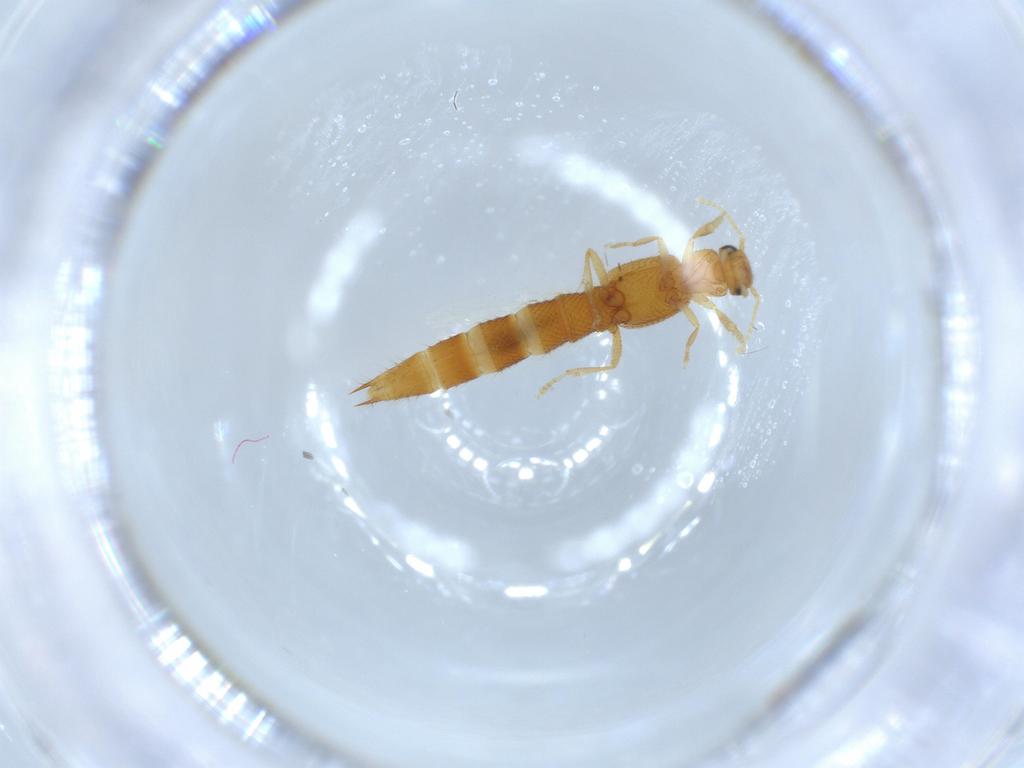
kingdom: Animalia
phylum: Arthropoda
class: Insecta
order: Coleoptera
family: Staphylinidae
